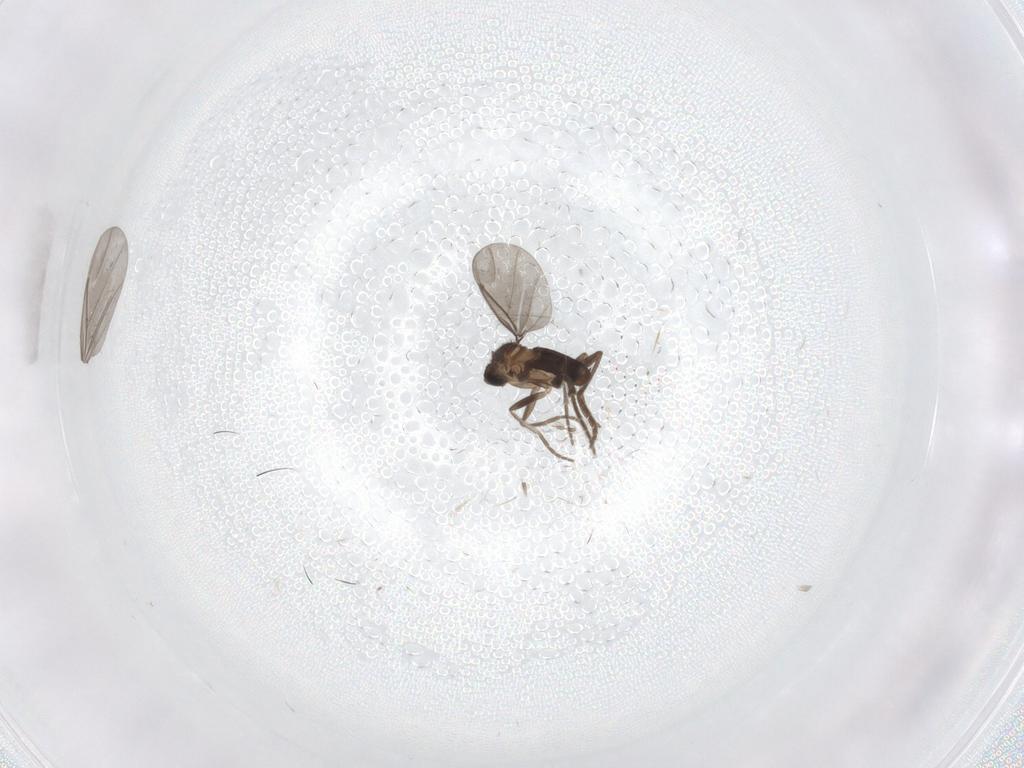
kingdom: Animalia
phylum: Arthropoda
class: Insecta
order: Diptera
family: Phoridae
